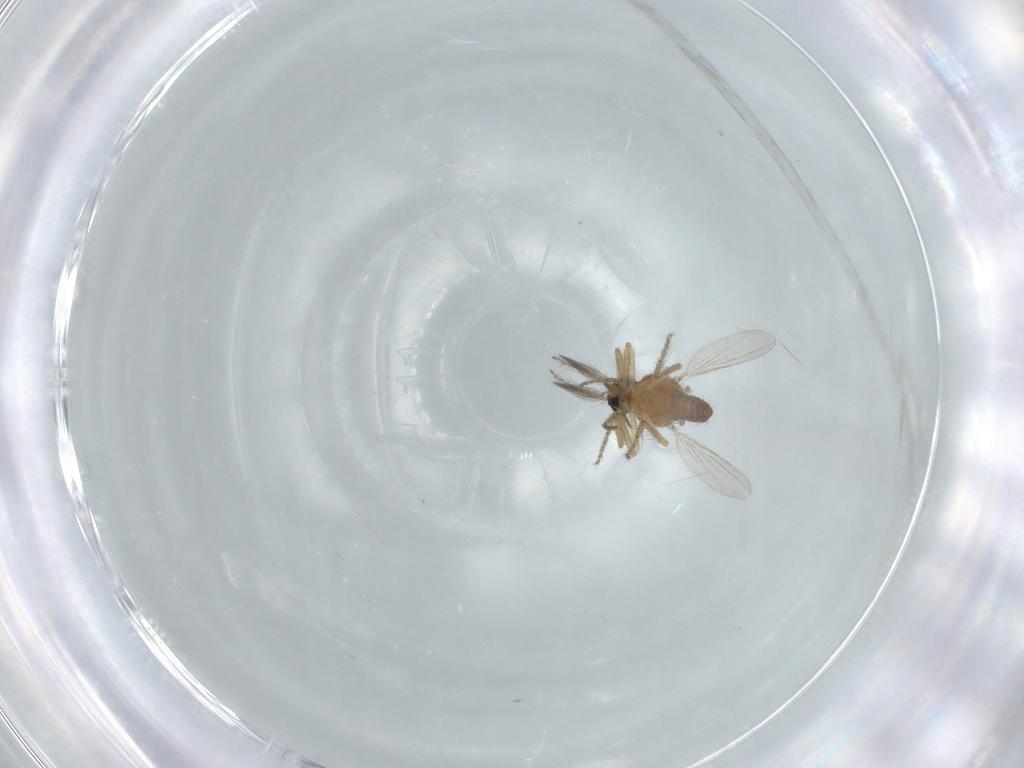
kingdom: Animalia
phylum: Arthropoda
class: Insecta
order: Diptera
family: Ceratopogonidae
